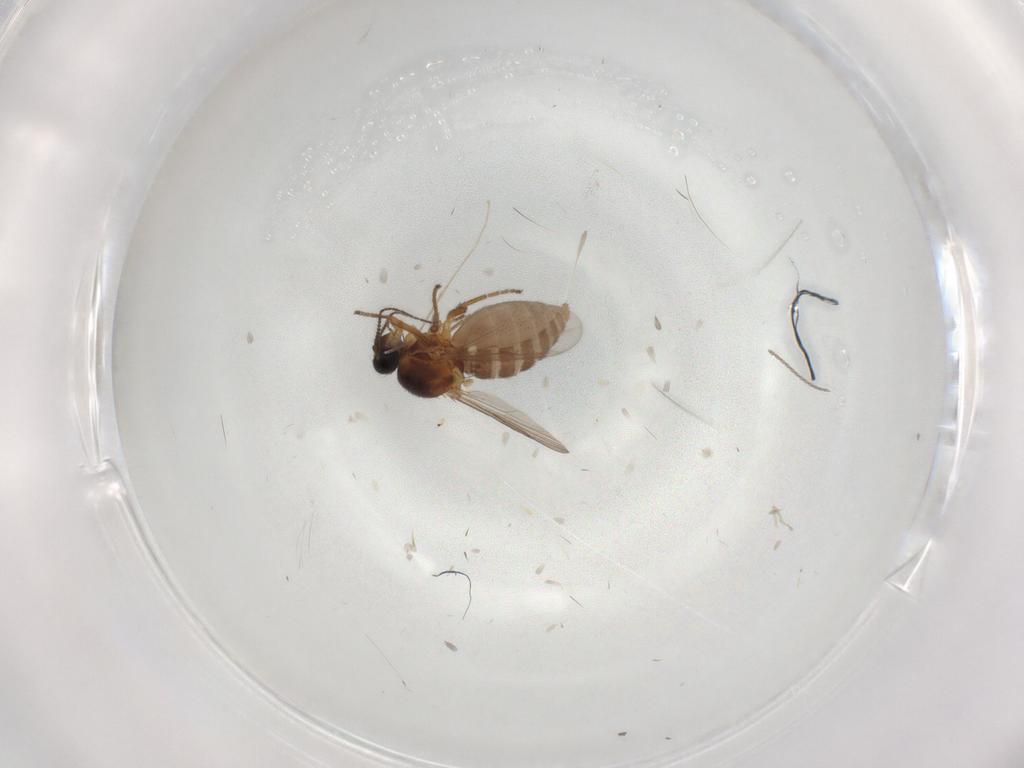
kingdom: Animalia
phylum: Arthropoda
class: Insecta
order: Diptera
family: Ceratopogonidae
